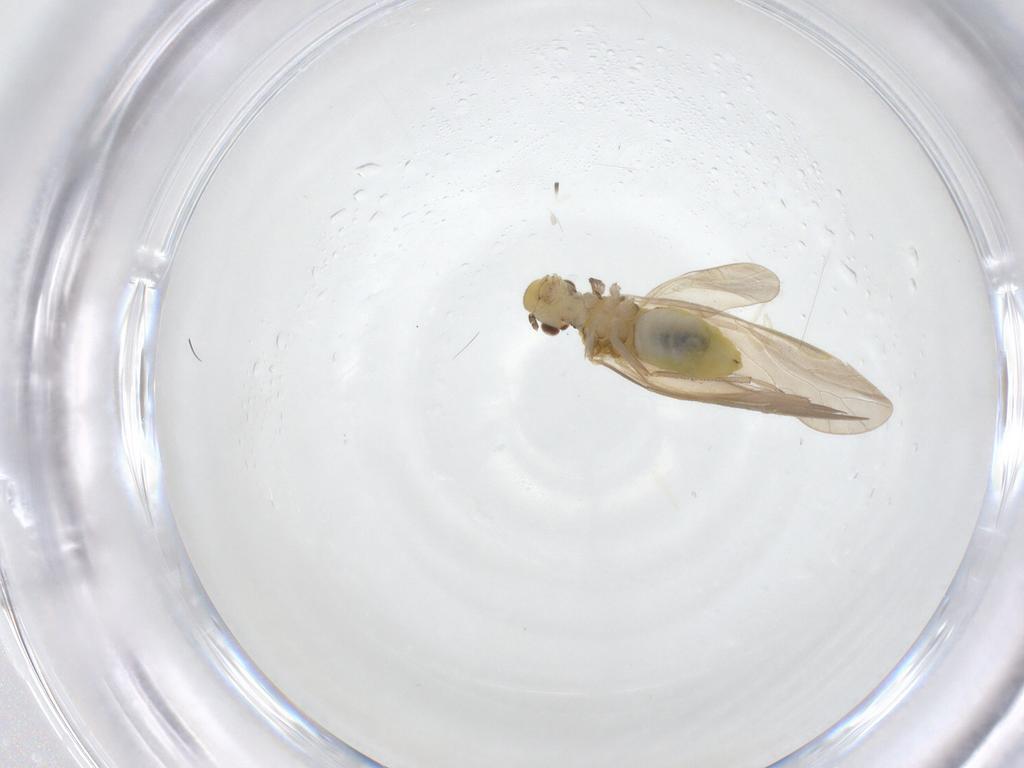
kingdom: Animalia
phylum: Arthropoda
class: Insecta
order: Psocodea
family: Caeciliusidae
